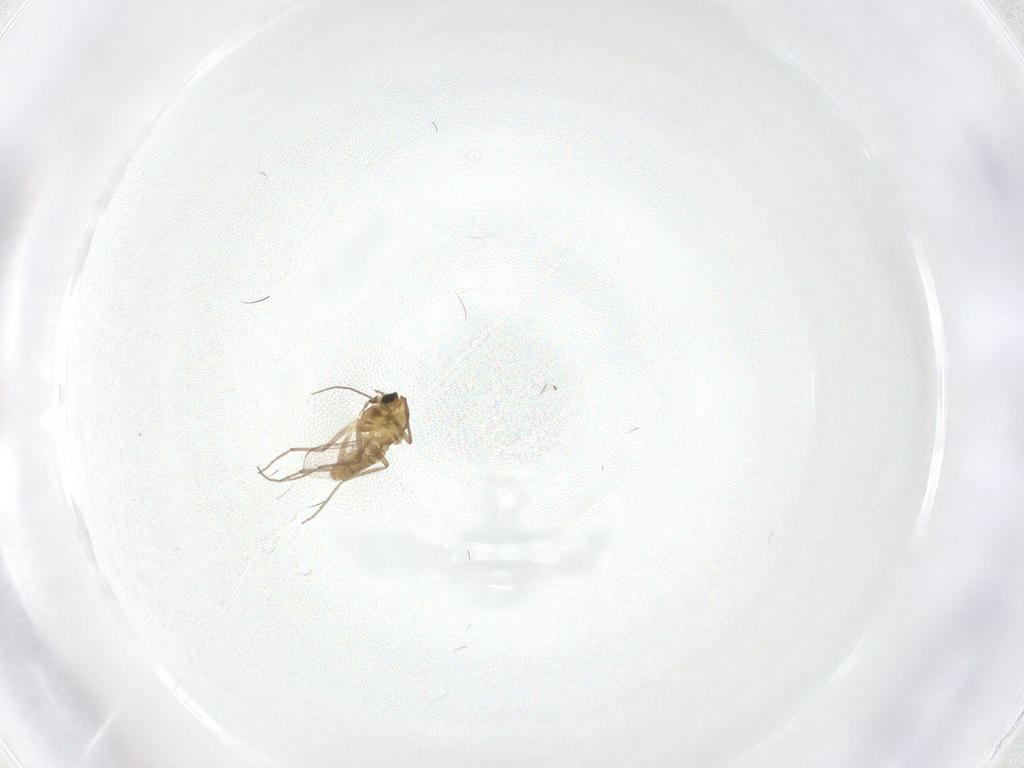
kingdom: Animalia
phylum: Arthropoda
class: Insecta
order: Diptera
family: Chironomidae
